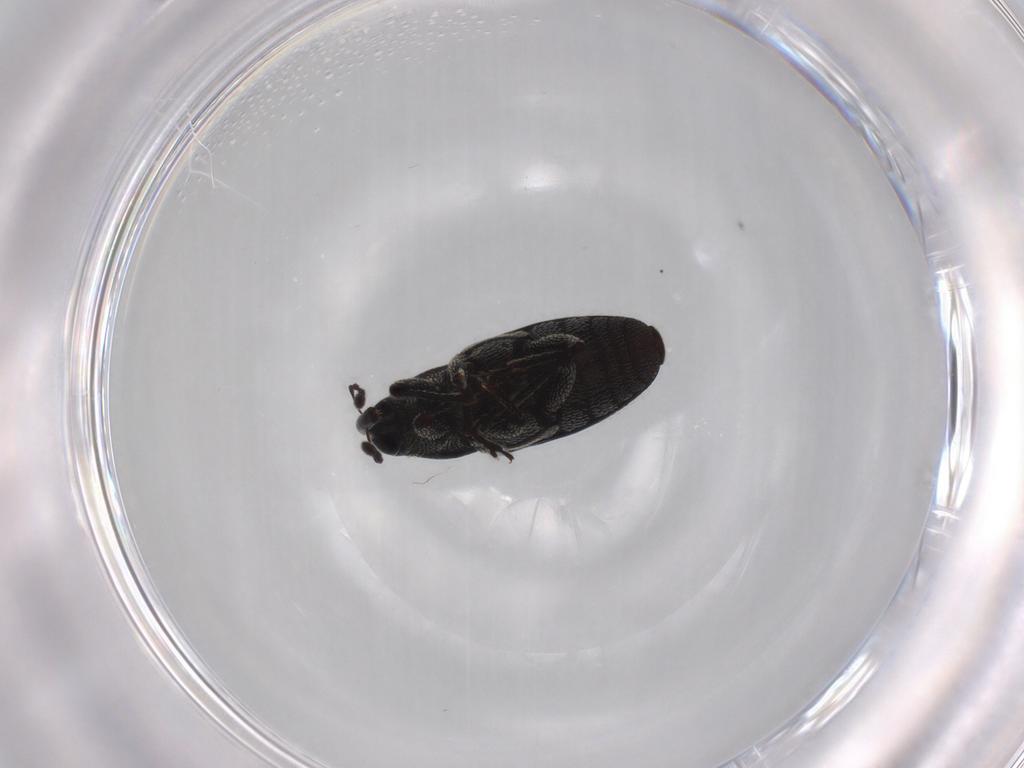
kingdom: Animalia
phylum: Arthropoda
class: Insecta
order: Coleoptera
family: Curculionidae
